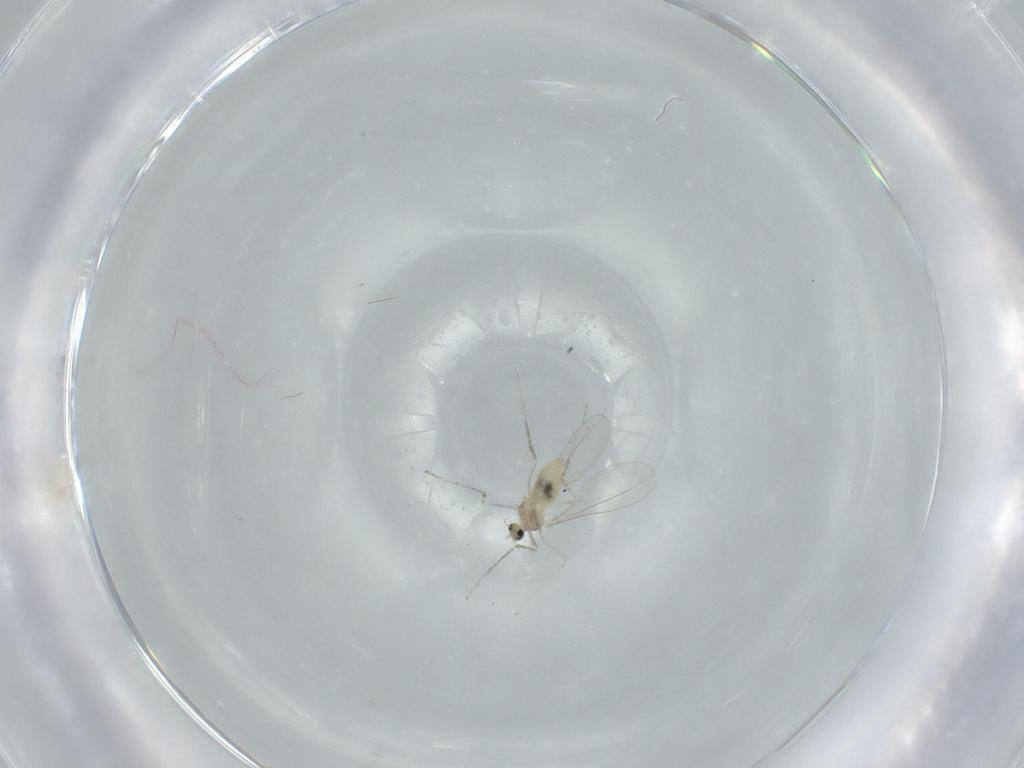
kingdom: Animalia
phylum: Arthropoda
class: Insecta
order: Diptera
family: Cecidomyiidae
